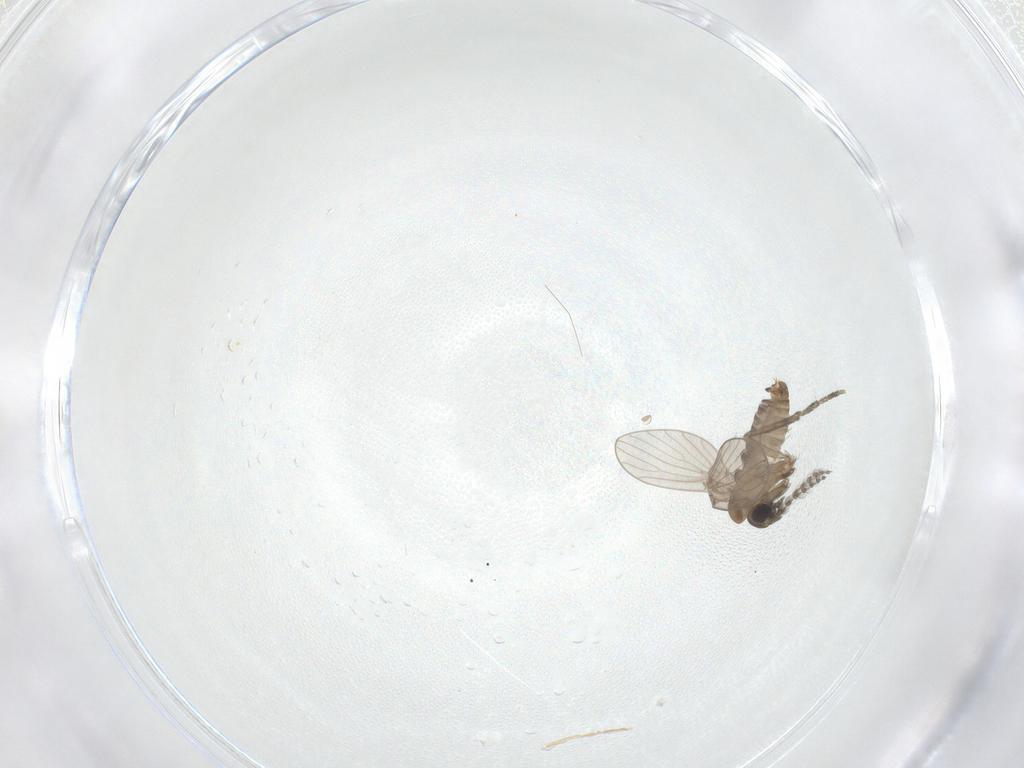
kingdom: Animalia
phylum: Arthropoda
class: Insecta
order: Diptera
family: Cecidomyiidae
